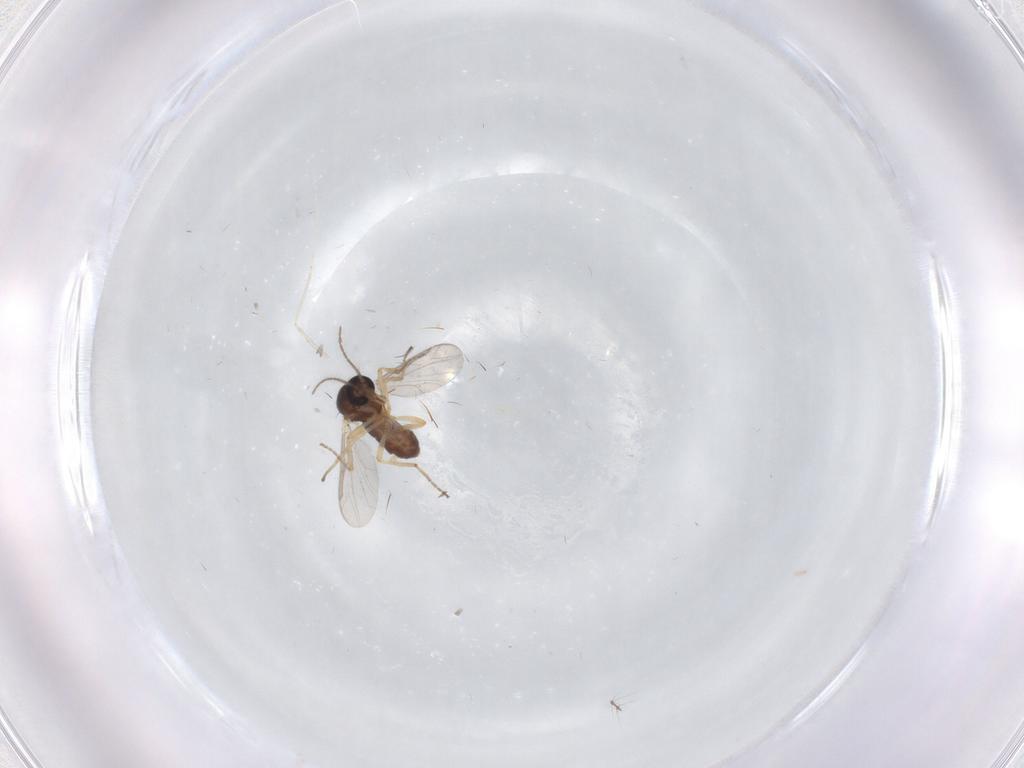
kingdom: Animalia
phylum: Arthropoda
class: Insecta
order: Diptera
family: Ceratopogonidae
